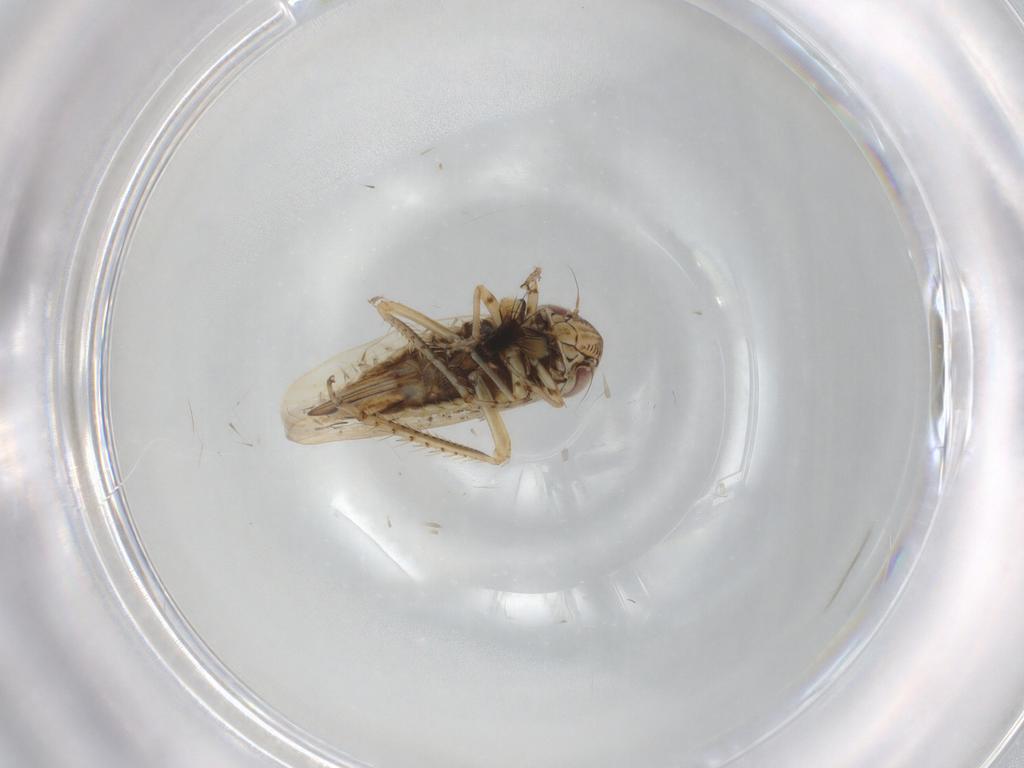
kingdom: Animalia
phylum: Arthropoda
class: Insecta
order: Hemiptera
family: Cicadellidae
